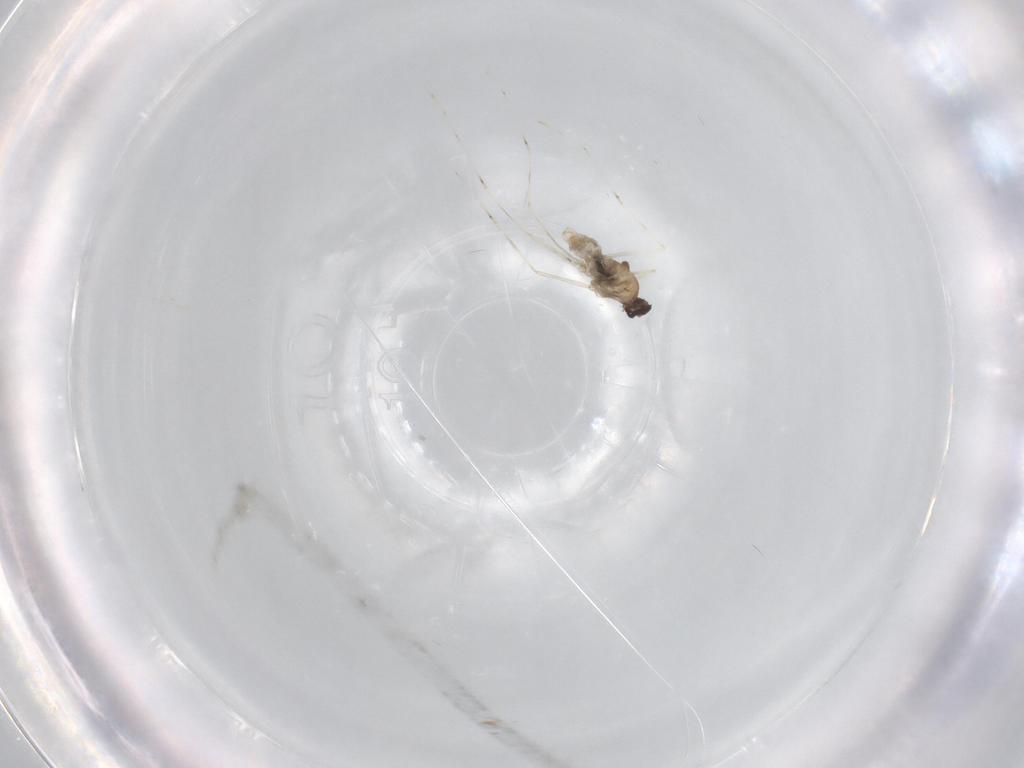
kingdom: Animalia
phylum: Arthropoda
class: Insecta
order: Diptera
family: Cecidomyiidae
